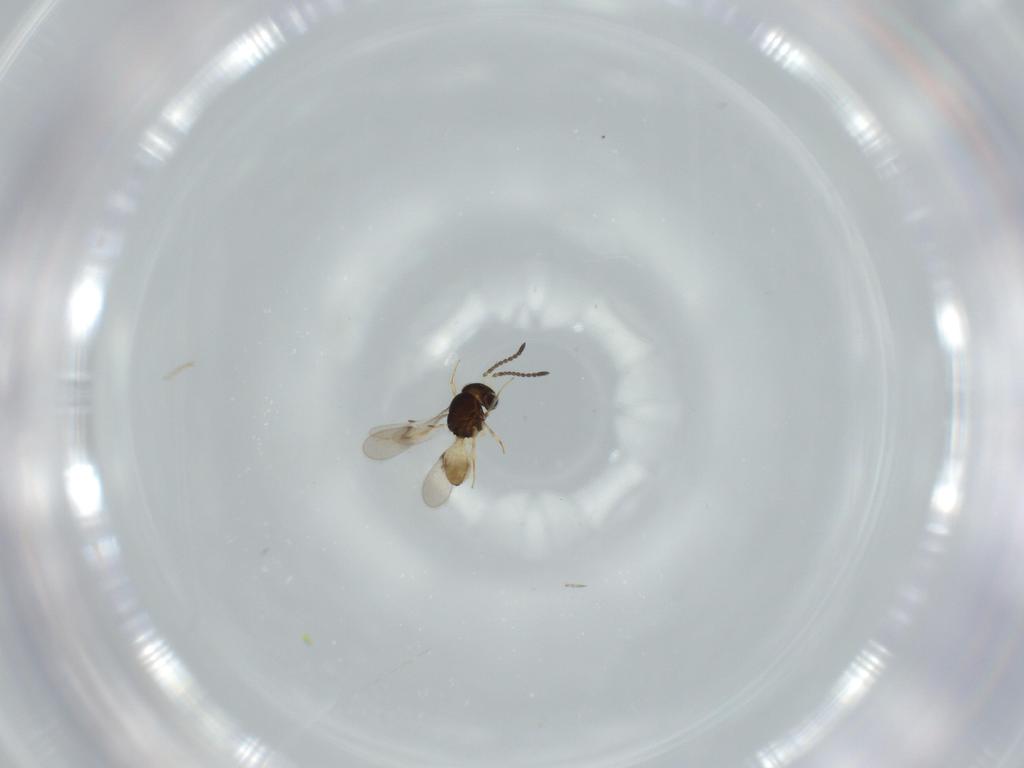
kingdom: Animalia
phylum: Arthropoda
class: Insecta
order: Hymenoptera
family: Scelionidae
